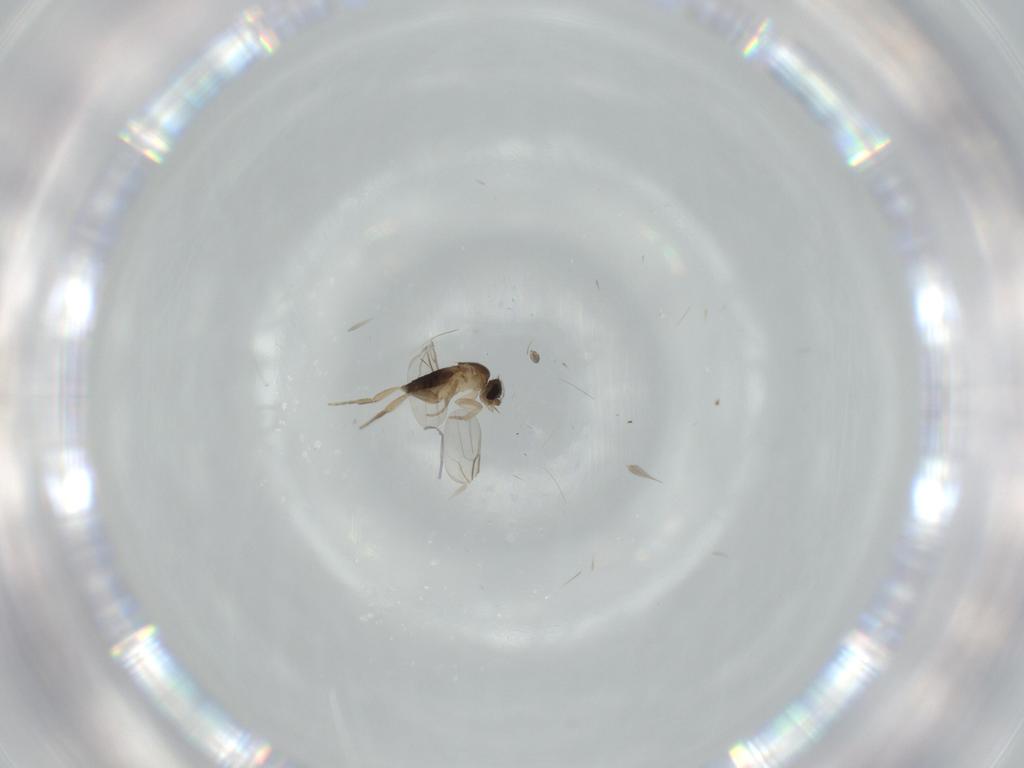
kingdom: Animalia
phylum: Arthropoda
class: Insecta
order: Diptera
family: Phoridae
